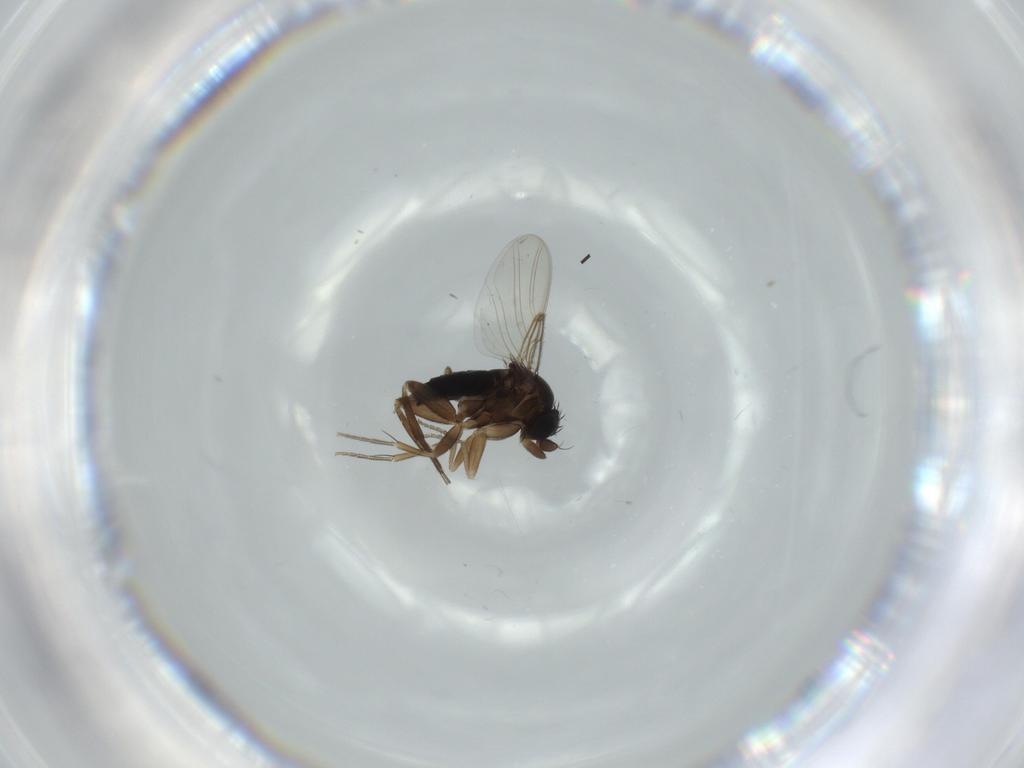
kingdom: Animalia
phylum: Arthropoda
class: Insecta
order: Diptera
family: Phoridae
